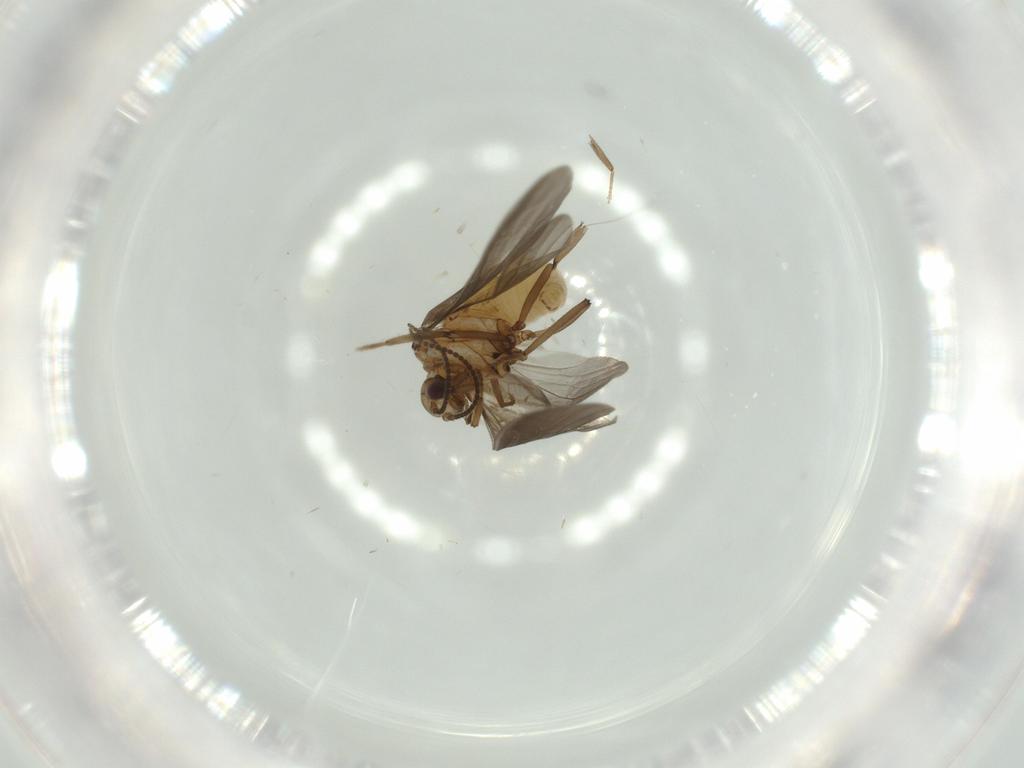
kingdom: Animalia
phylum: Arthropoda
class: Insecta
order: Neuroptera
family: Coniopterygidae
